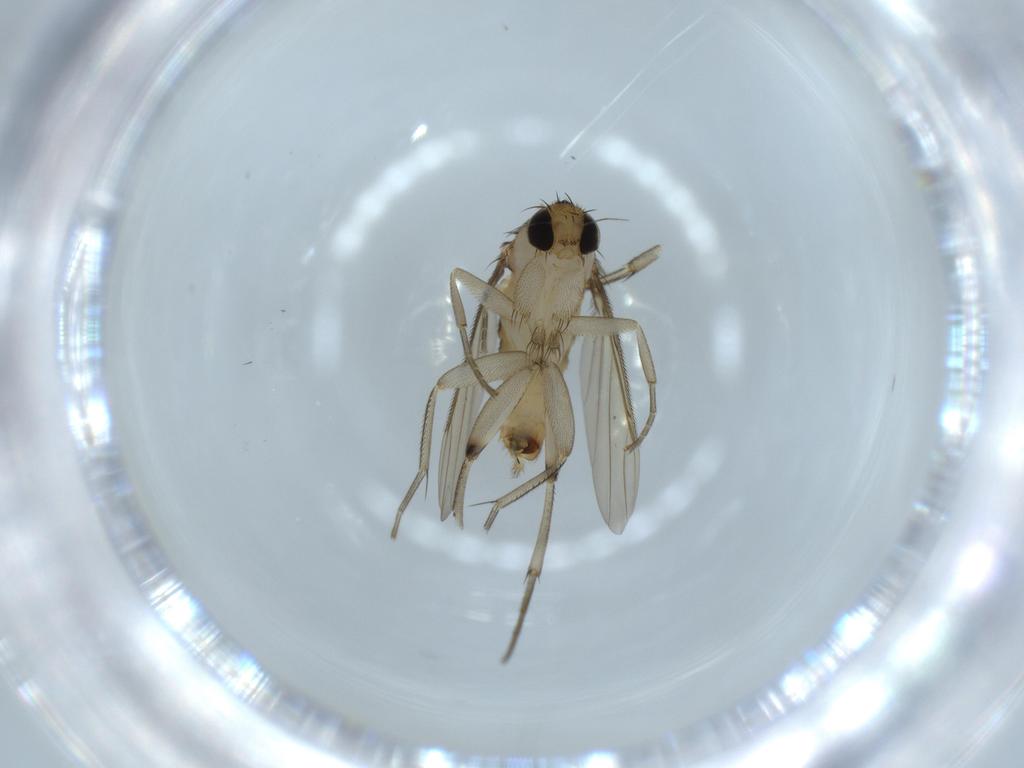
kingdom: Animalia
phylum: Arthropoda
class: Insecta
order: Diptera
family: Phoridae
